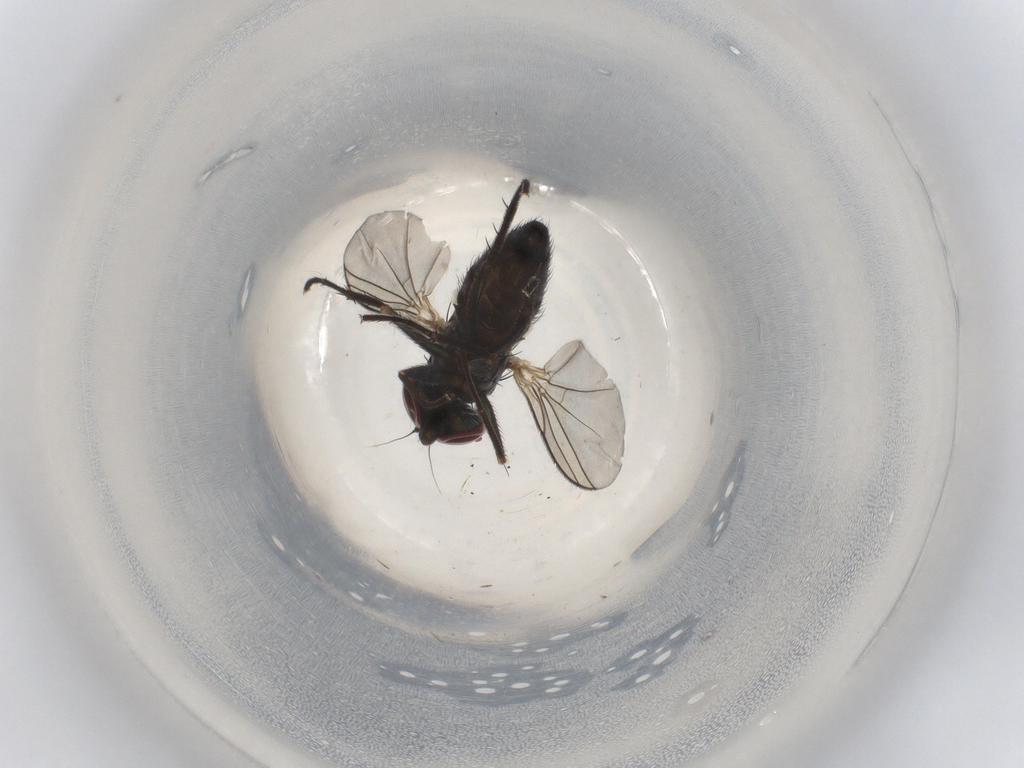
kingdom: Animalia
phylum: Arthropoda
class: Insecta
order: Diptera
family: Dolichopodidae
